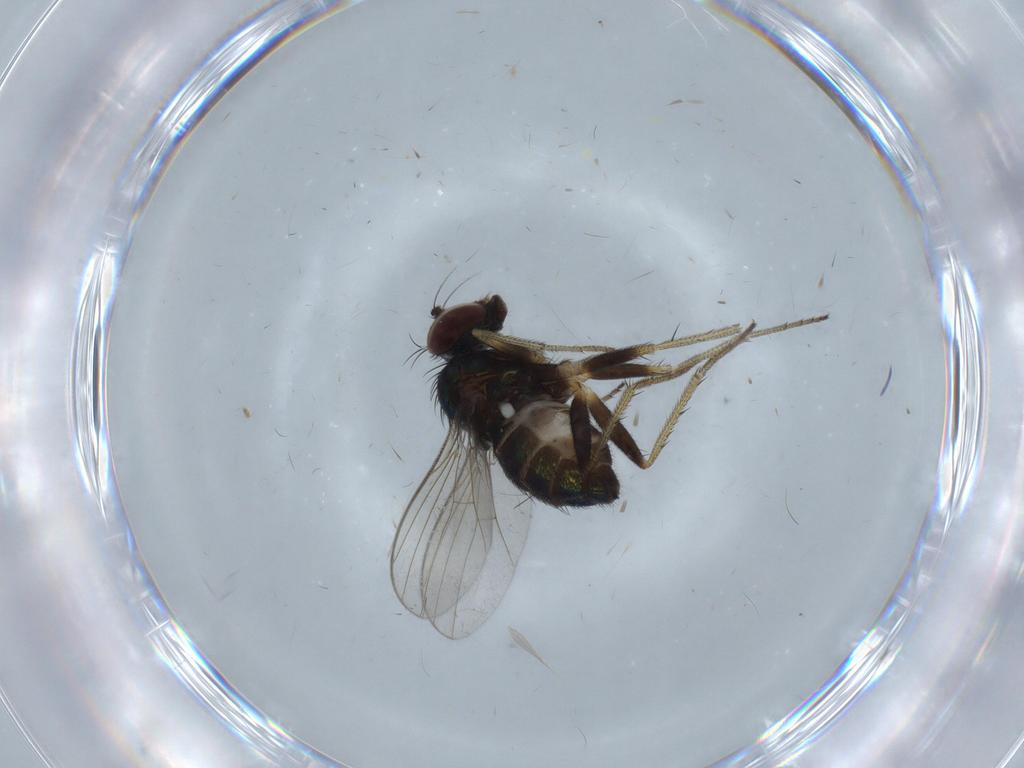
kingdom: Animalia
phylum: Arthropoda
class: Insecta
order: Diptera
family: Dolichopodidae
